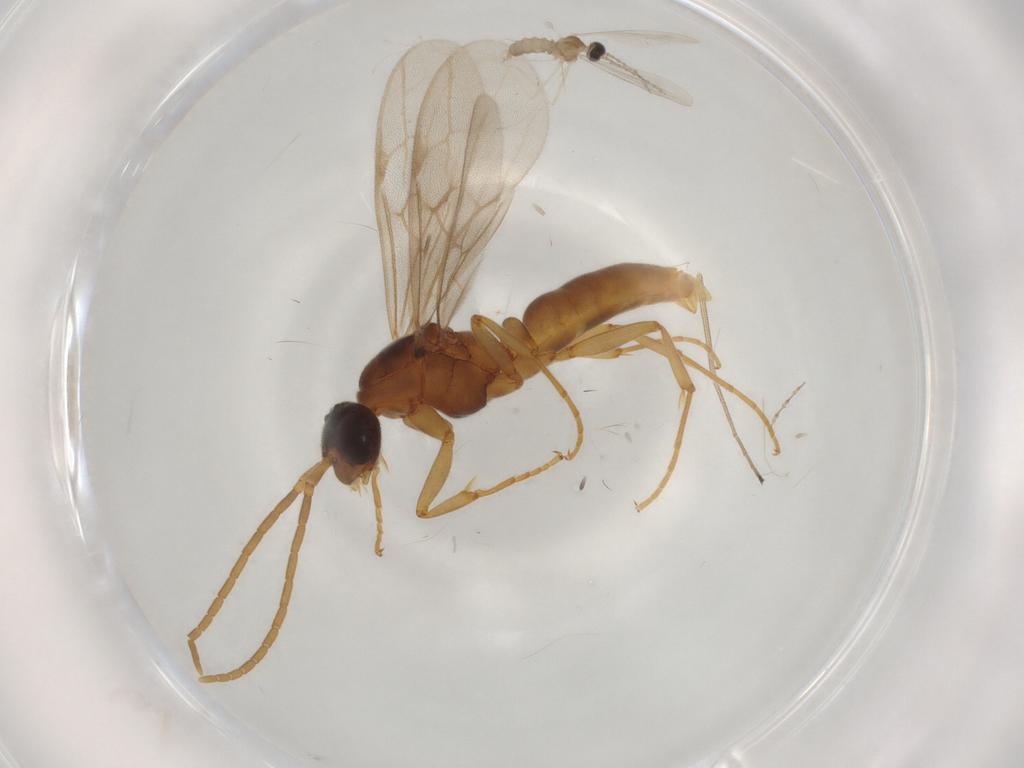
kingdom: Animalia
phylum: Arthropoda
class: Insecta
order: Hymenoptera
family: Formicidae
